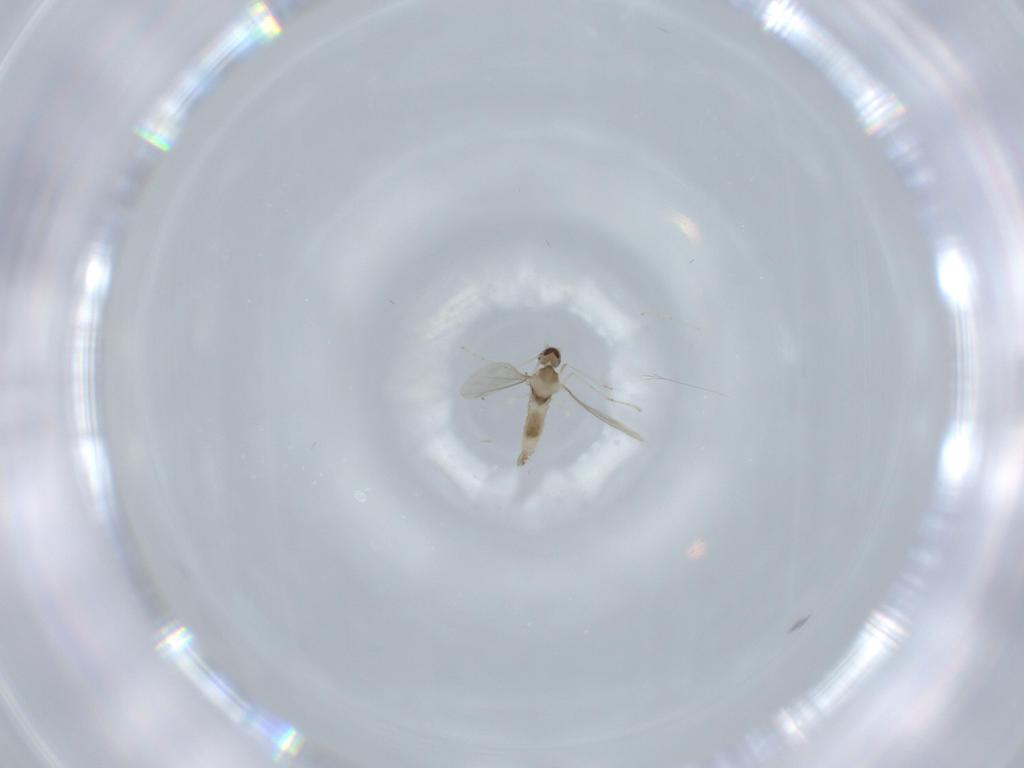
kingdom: Animalia
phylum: Arthropoda
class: Insecta
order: Diptera
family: Cecidomyiidae
